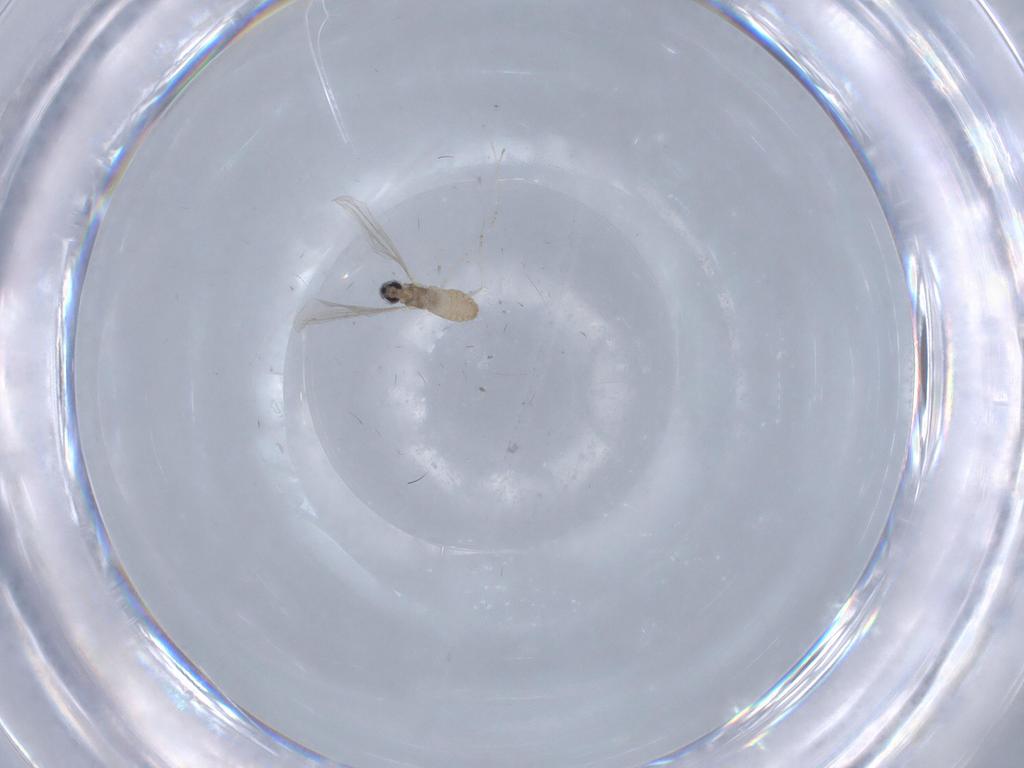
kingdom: Animalia
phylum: Arthropoda
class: Insecta
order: Diptera
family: Cecidomyiidae
